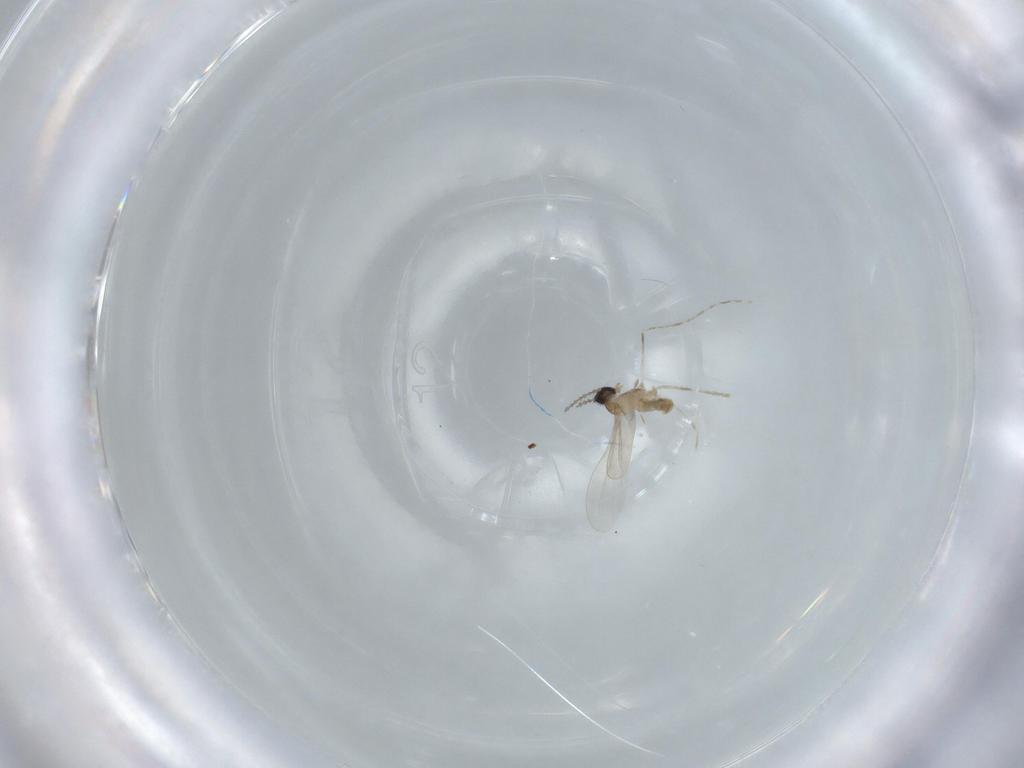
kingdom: Animalia
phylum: Arthropoda
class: Insecta
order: Diptera
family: Cecidomyiidae
